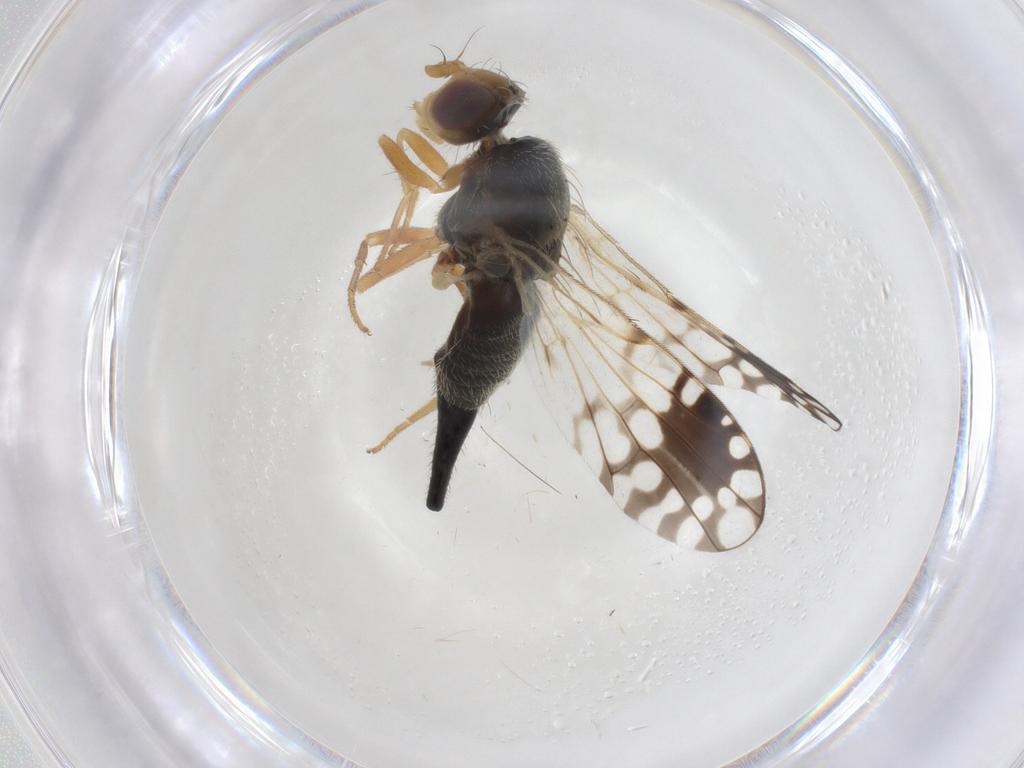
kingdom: Animalia
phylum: Arthropoda
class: Insecta
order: Diptera
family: Tephritidae
